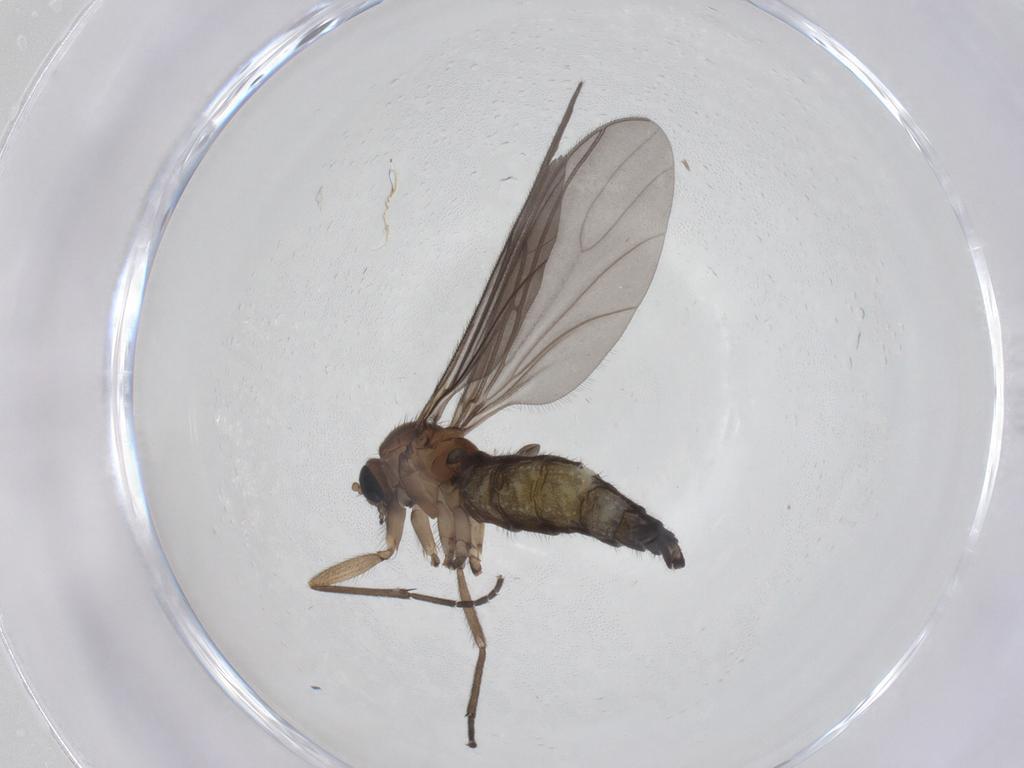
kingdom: Animalia
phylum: Arthropoda
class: Insecta
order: Diptera
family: Sciaridae
